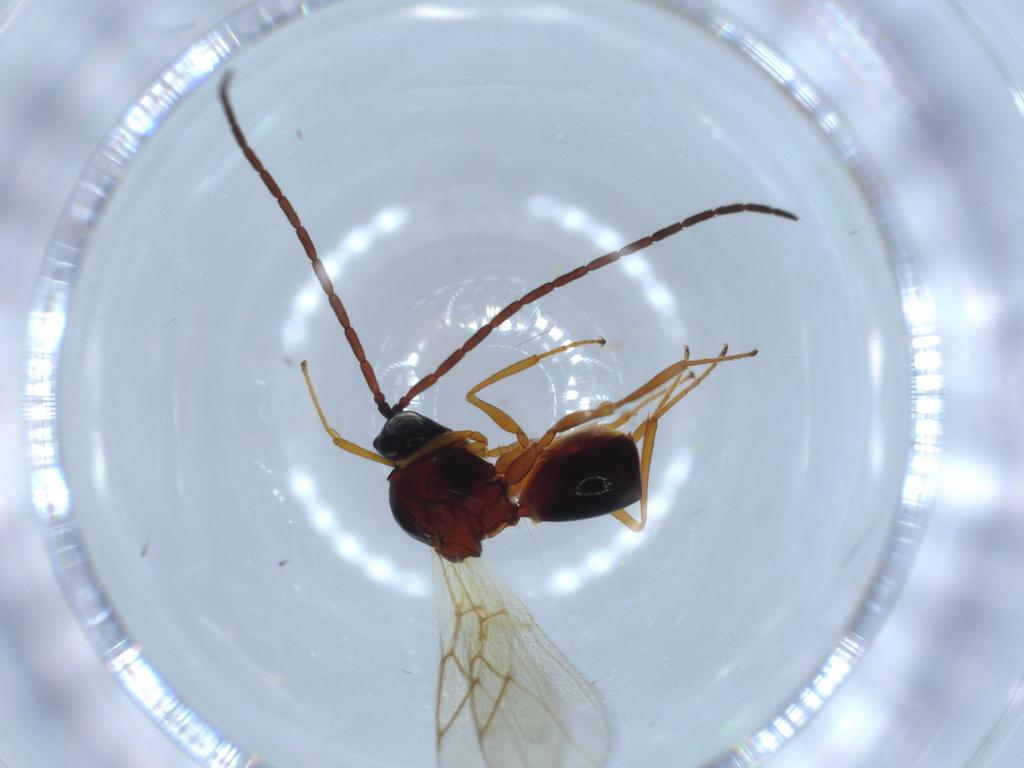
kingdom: Animalia
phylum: Arthropoda
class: Insecta
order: Hymenoptera
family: Figitidae
